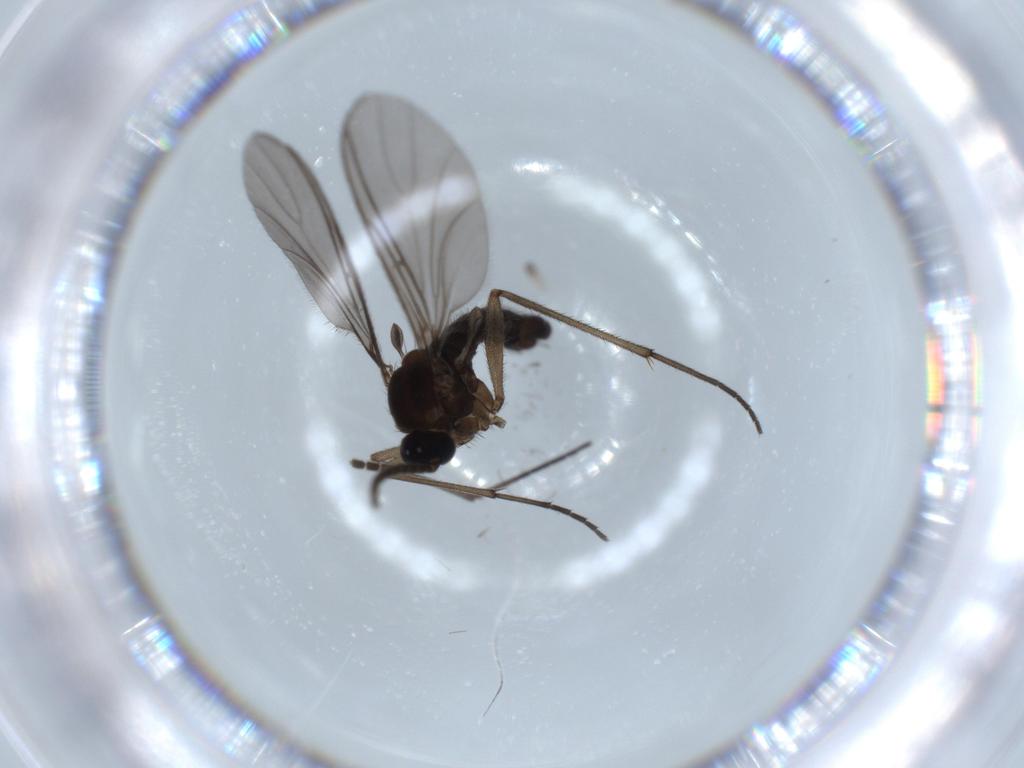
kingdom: Animalia
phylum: Arthropoda
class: Insecta
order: Diptera
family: Sciaridae
